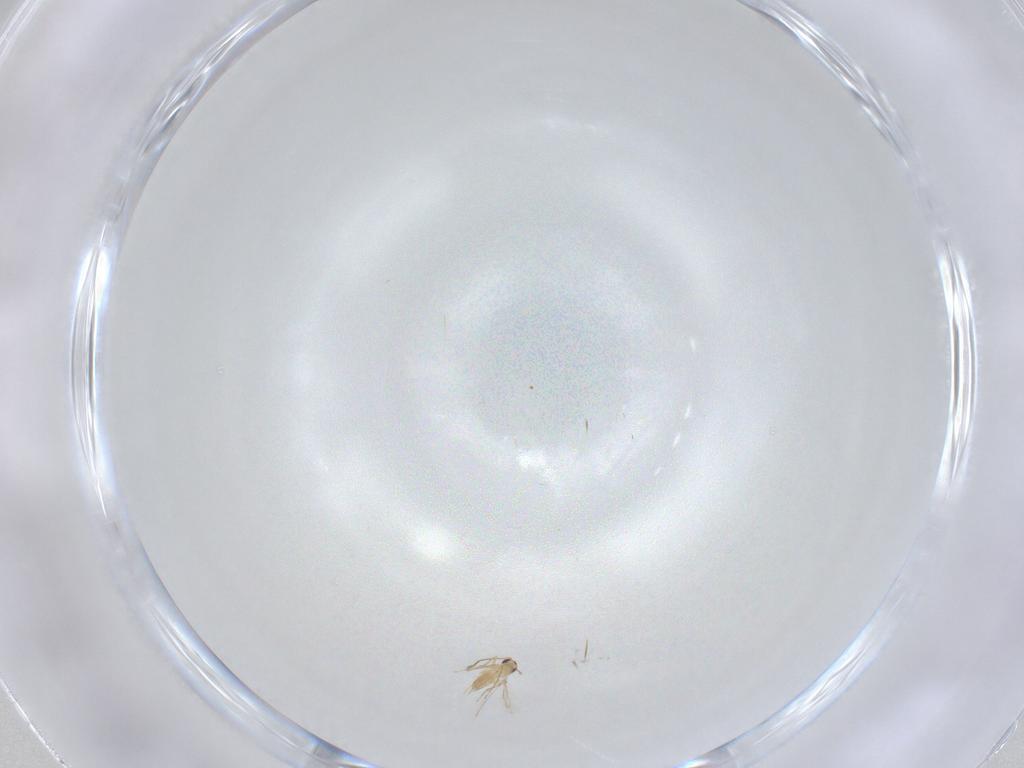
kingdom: Animalia
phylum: Arthropoda
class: Insecta
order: Hymenoptera
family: Mymaridae
